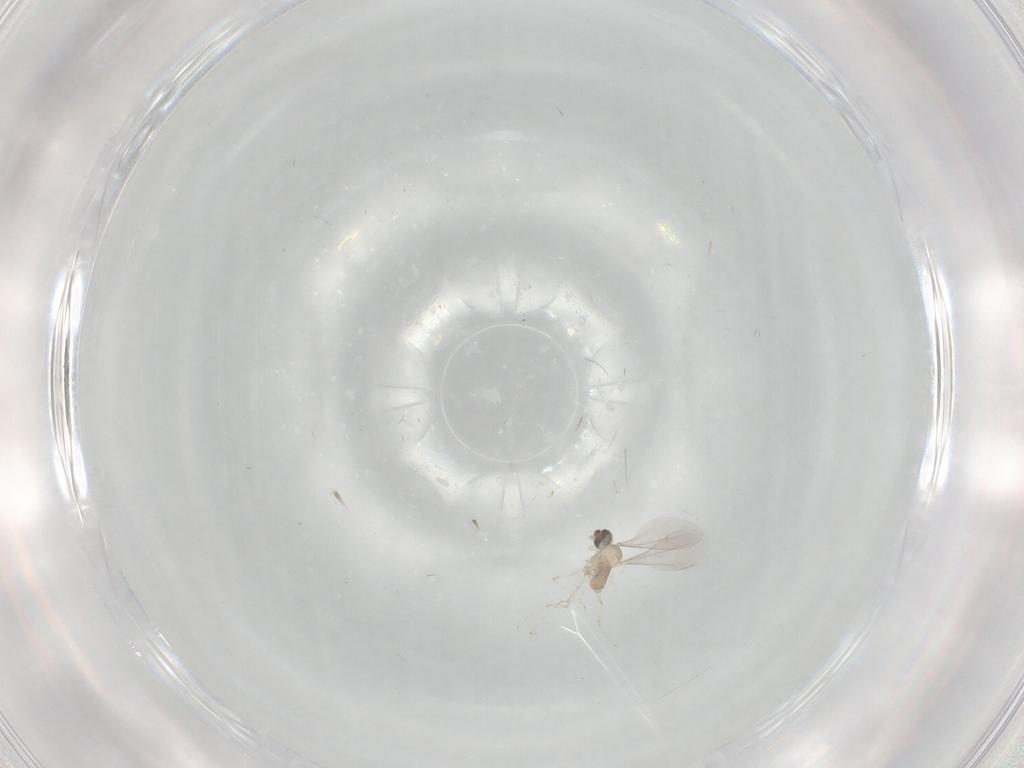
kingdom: Animalia
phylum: Arthropoda
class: Insecta
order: Diptera
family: Cecidomyiidae
